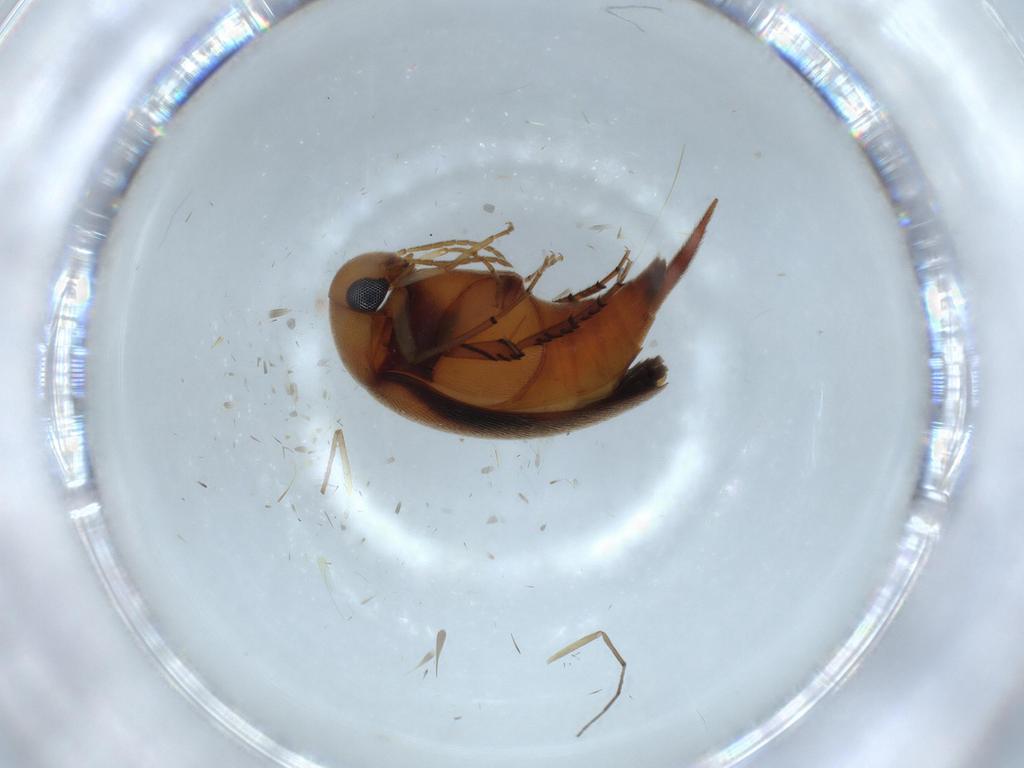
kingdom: Animalia
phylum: Arthropoda
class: Insecta
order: Coleoptera
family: Mordellidae
